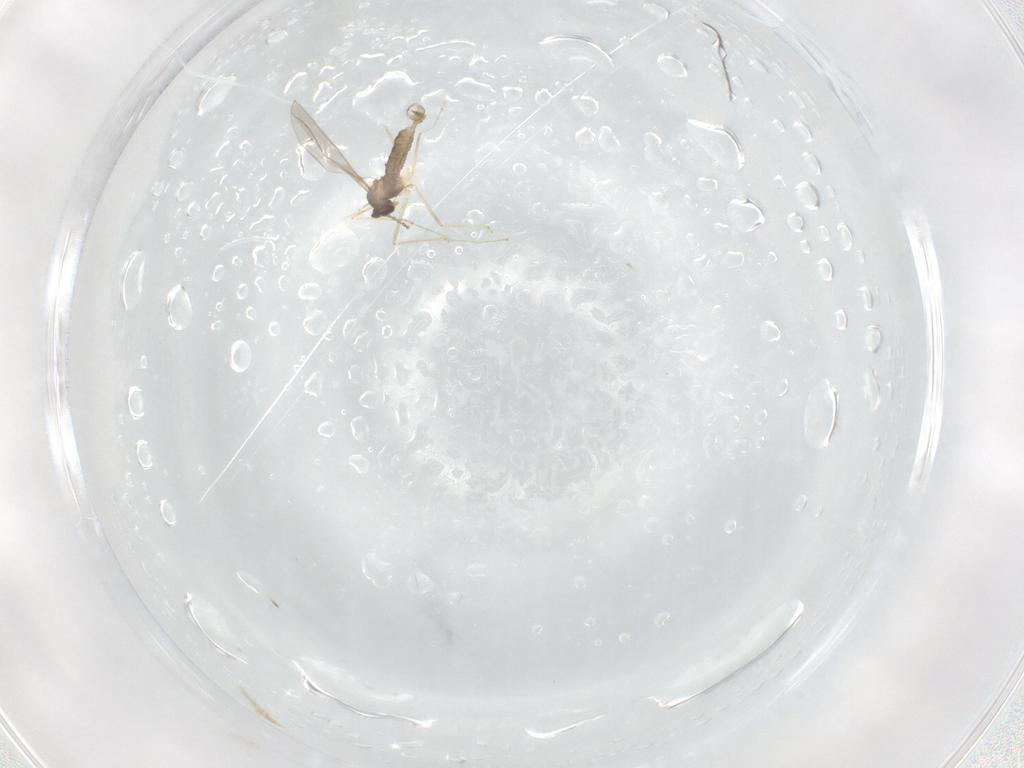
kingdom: Animalia
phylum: Arthropoda
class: Insecta
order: Diptera
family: Cecidomyiidae
